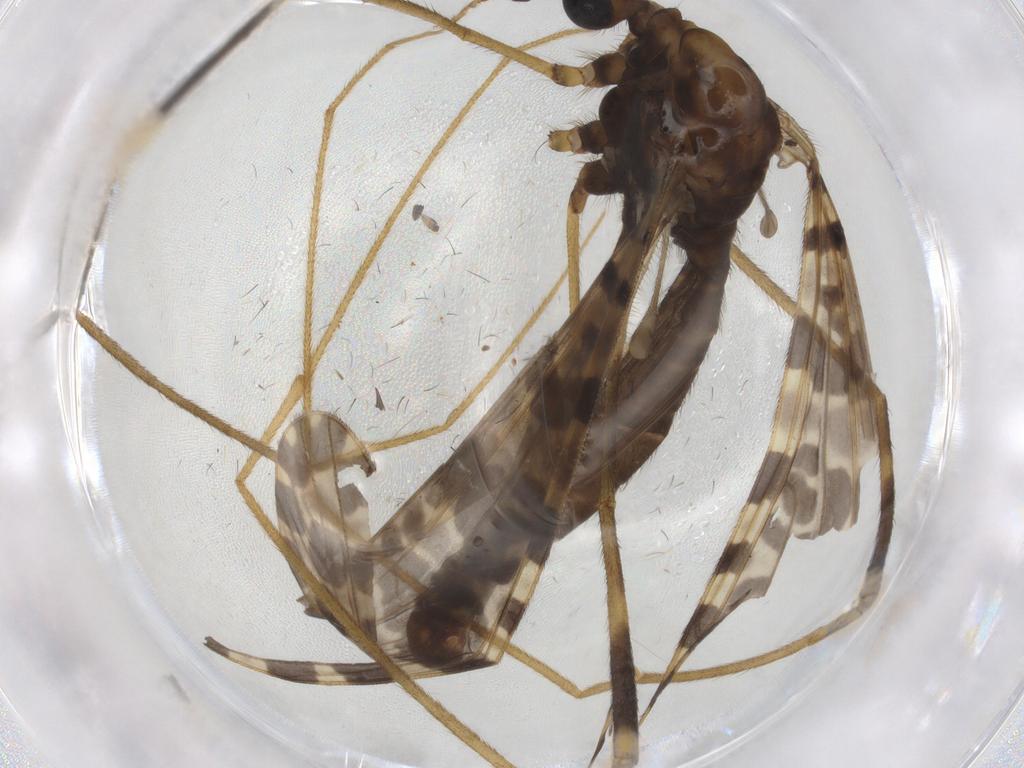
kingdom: Animalia
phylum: Arthropoda
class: Insecta
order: Diptera
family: Limoniidae
